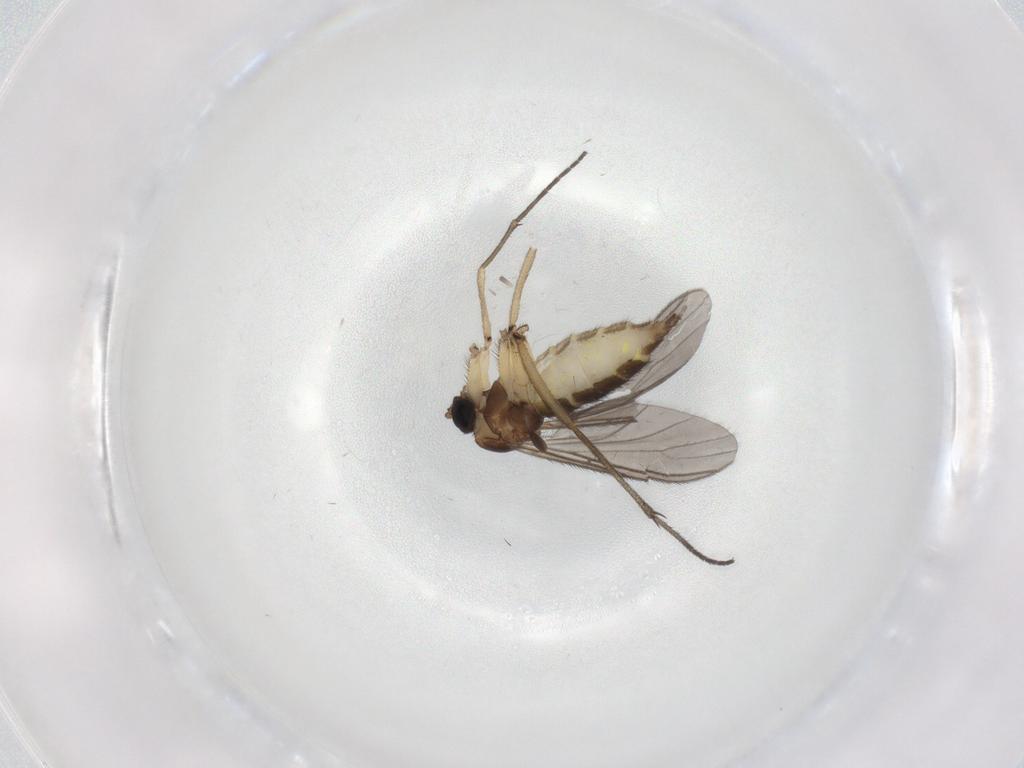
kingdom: Animalia
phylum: Arthropoda
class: Insecta
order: Diptera
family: Sciaridae
